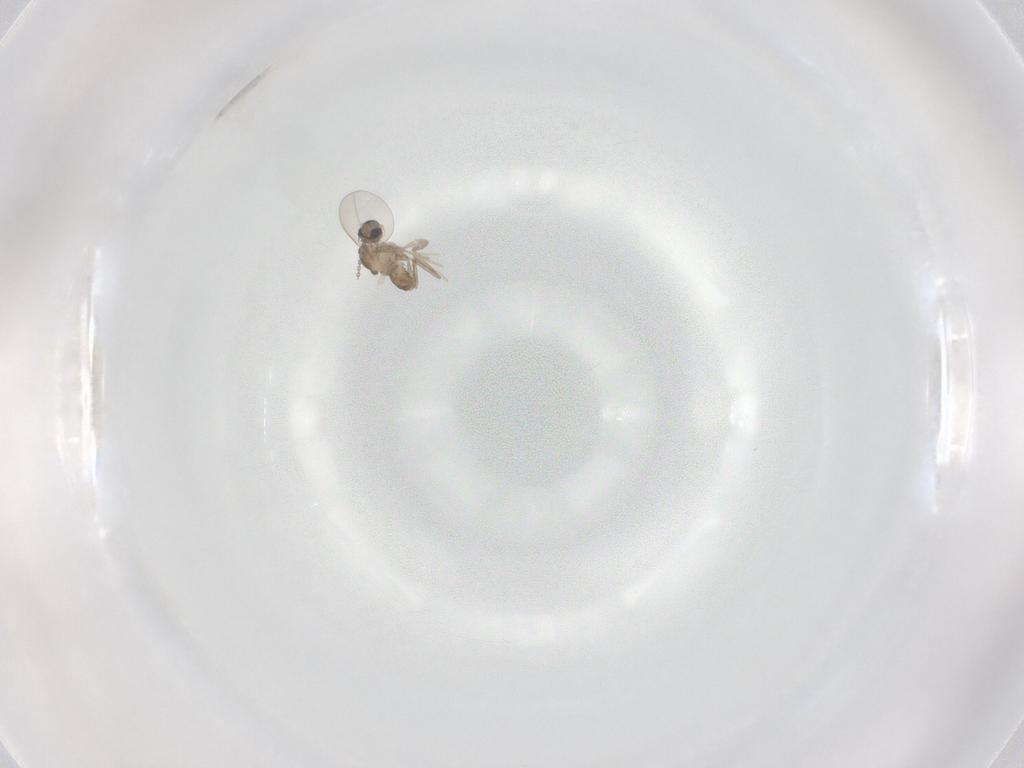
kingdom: Animalia
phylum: Arthropoda
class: Insecta
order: Diptera
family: Cecidomyiidae
